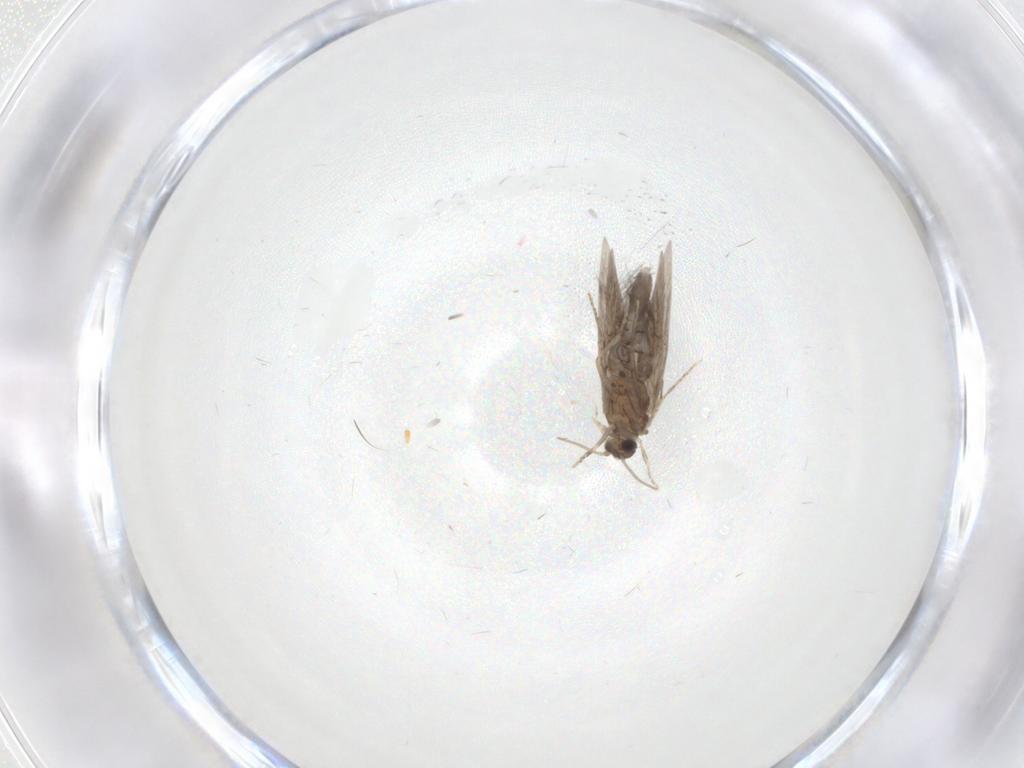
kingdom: Animalia
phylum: Arthropoda
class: Insecta
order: Trichoptera
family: Hydroptilidae
